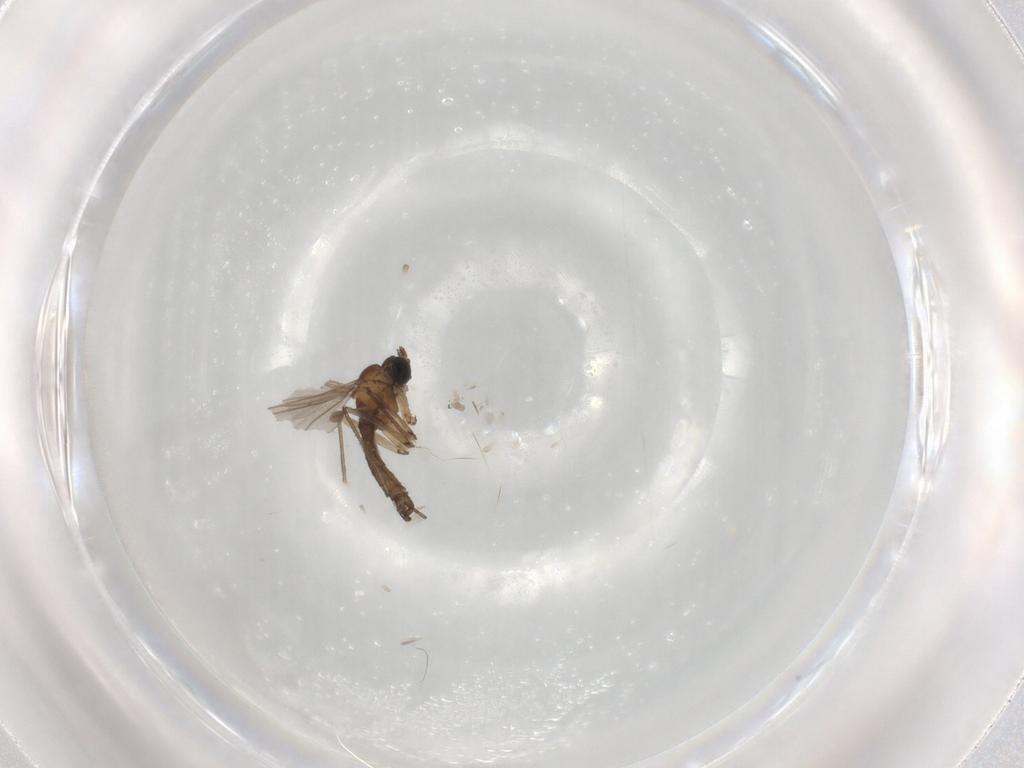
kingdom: Animalia
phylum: Arthropoda
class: Insecta
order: Diptera
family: Sciaridae
